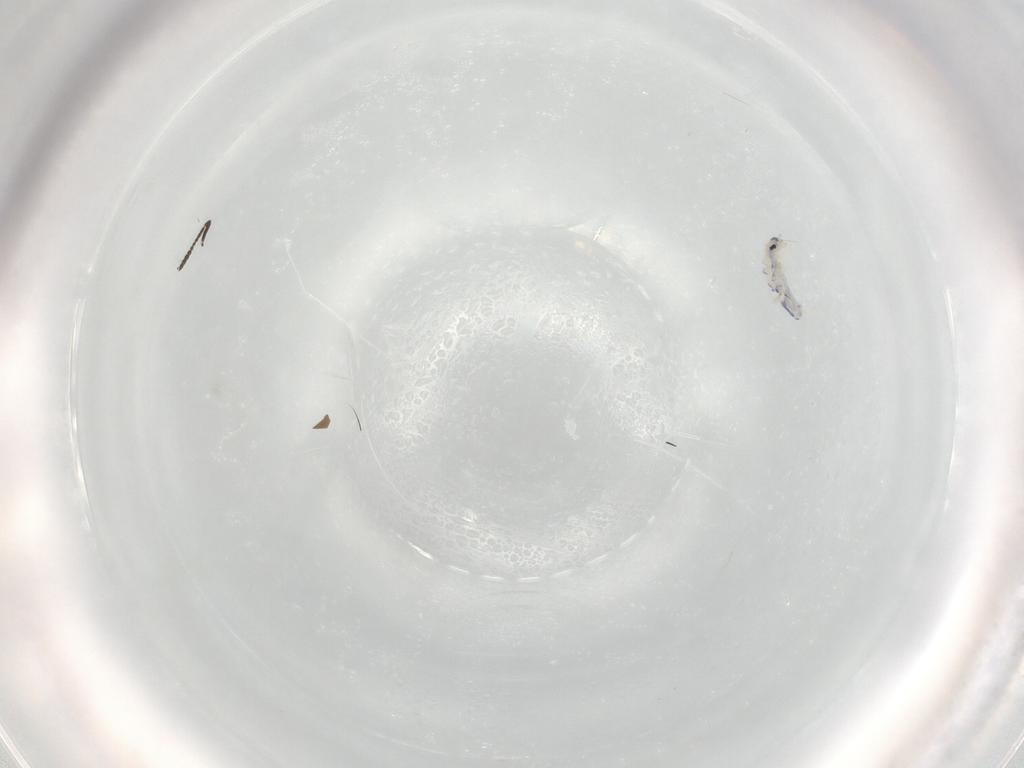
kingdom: Animalia
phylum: Arthropoda
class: Collembola
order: Entomobryomorpha
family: Entomobryidae
